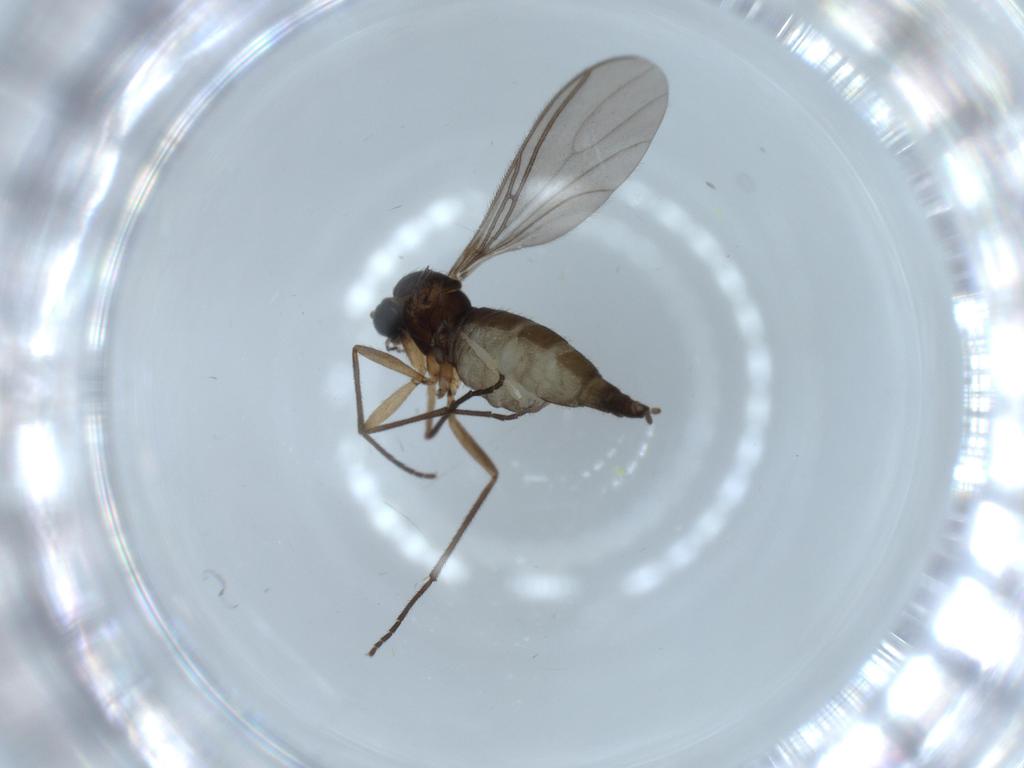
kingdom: Animalia
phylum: Arthropoda
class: Insecta
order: Diptera
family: Sciaridae
